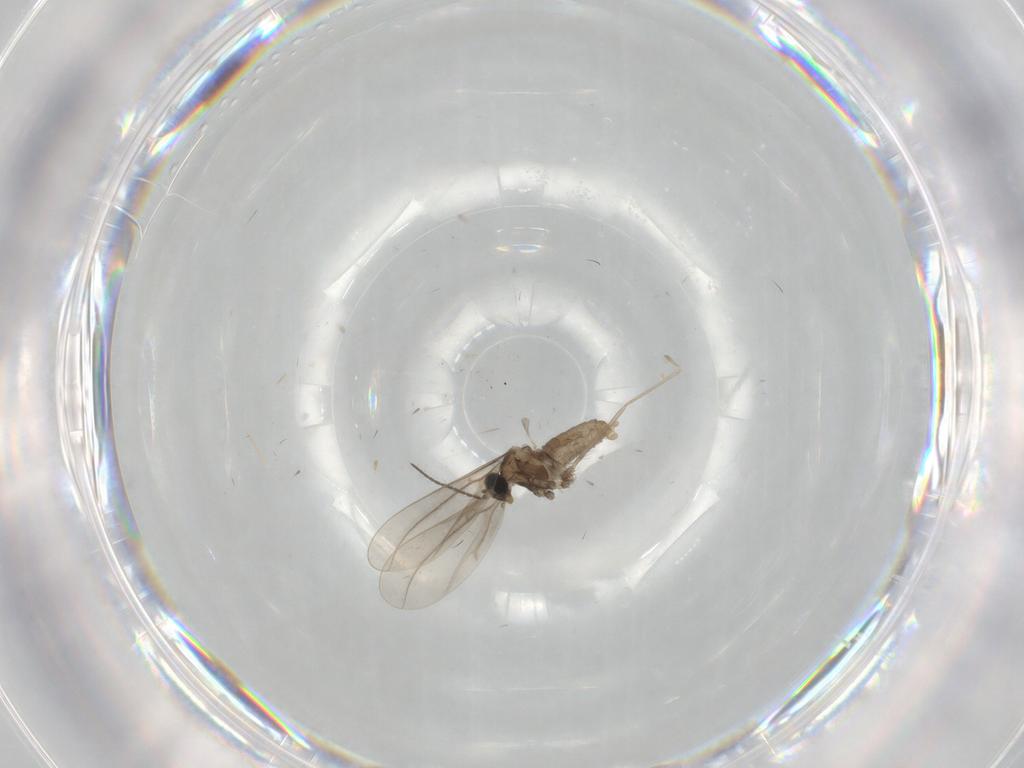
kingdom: Animalia
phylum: Arthropoda
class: Insecta
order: Diptera
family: Cecidomyiidae
